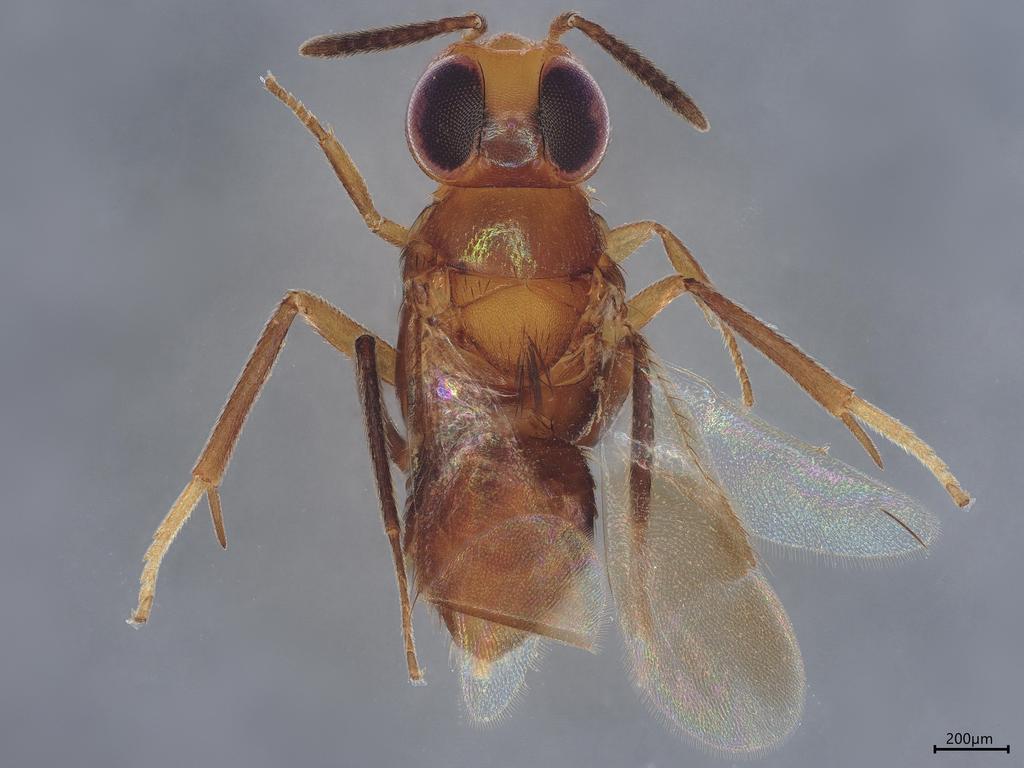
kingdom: Animalia
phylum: Arthropoda
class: Insecta
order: Hymenoptera
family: Encyrtidae
